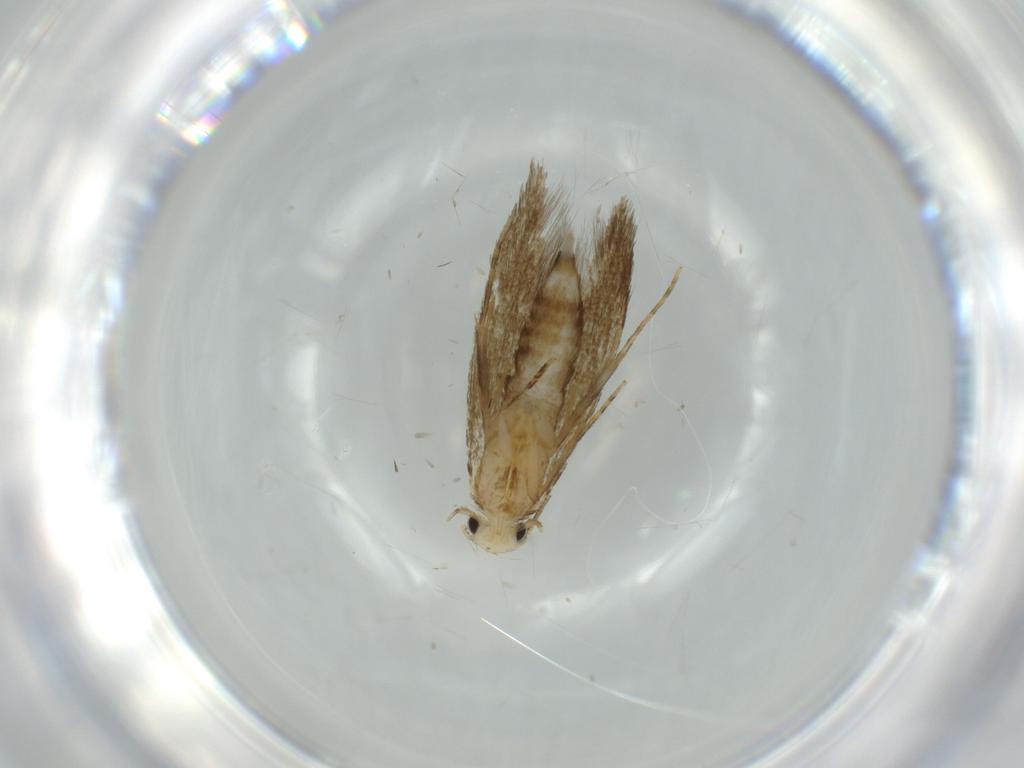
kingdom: Animalia
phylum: Arthropoda
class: Insecta
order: Lepidoptera
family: Tineidae
